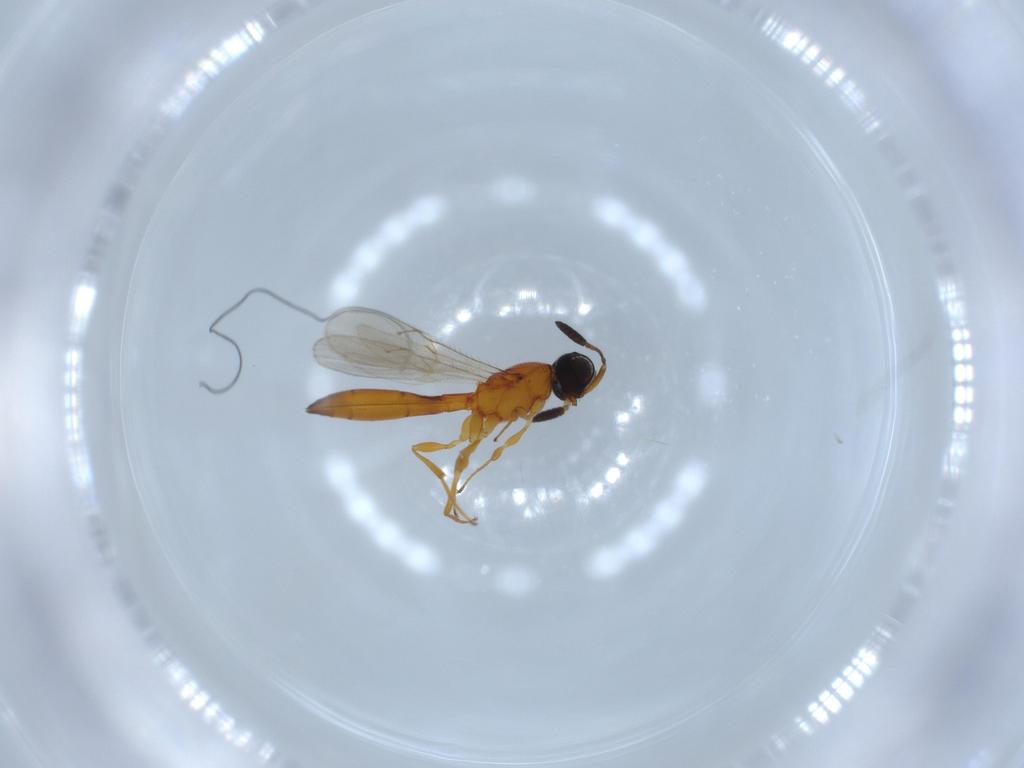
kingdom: Animalia
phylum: Arthropoda
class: Insecta
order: Hymenoptera
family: Scelionidae
